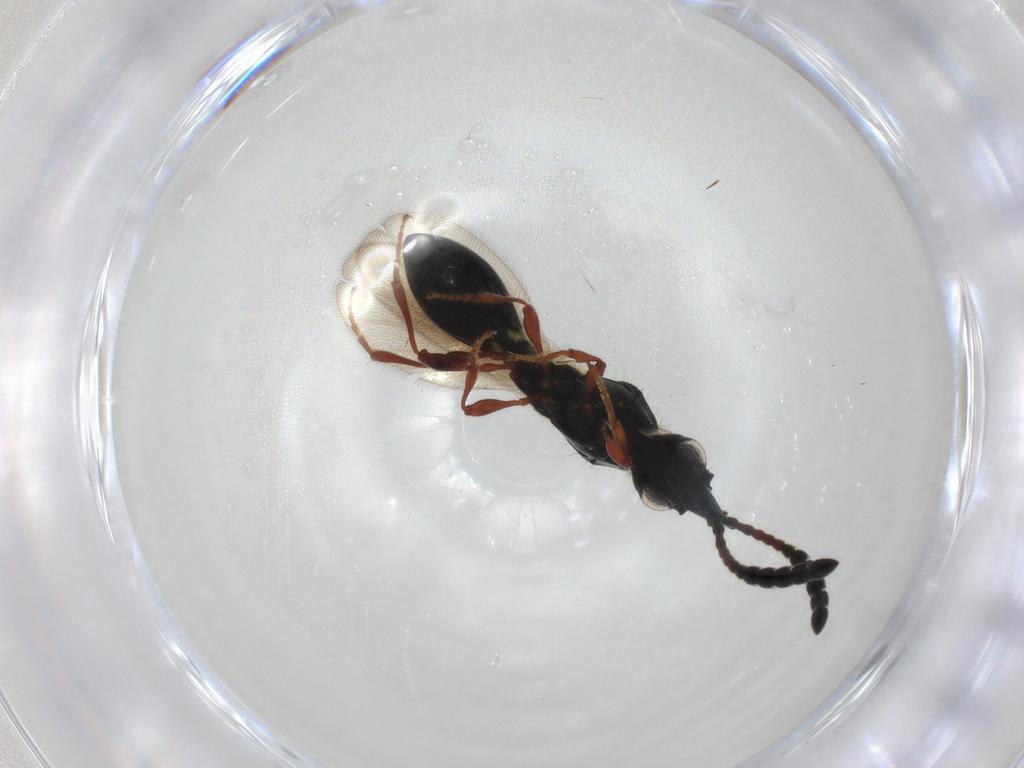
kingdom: Animalia
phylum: Arthropoda
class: Insecta
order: Hymenoptera
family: Diapriidae
